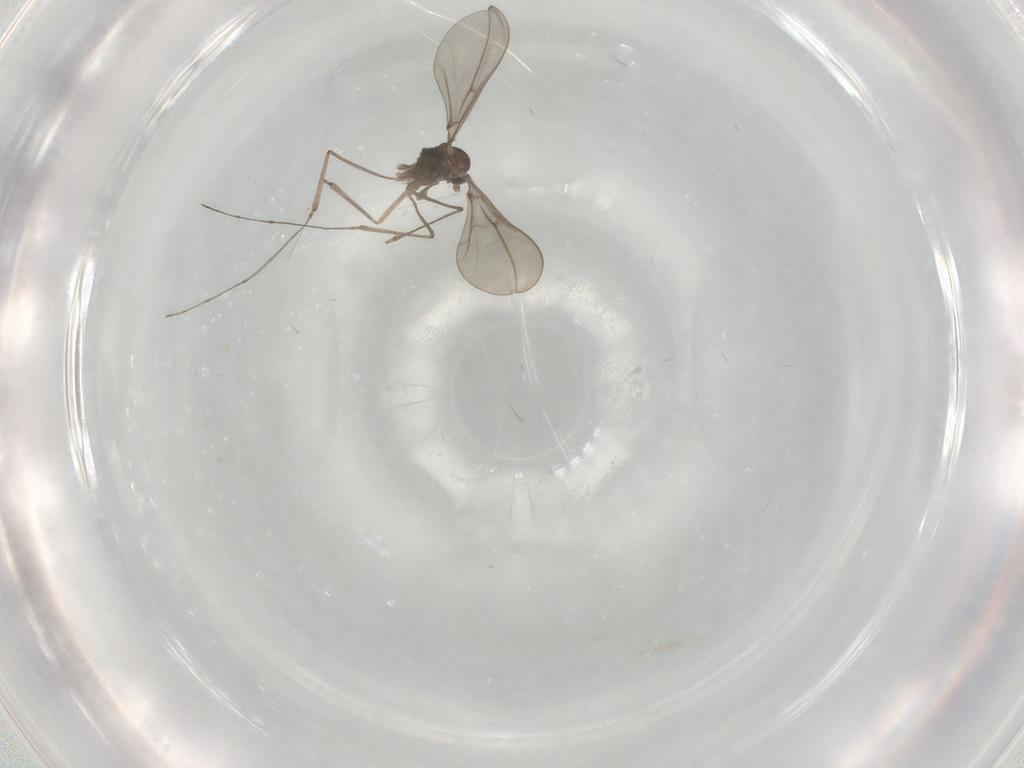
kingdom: Animalia
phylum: Arthropoda
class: Insecta
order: Diptera
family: Cecidomyiidae
